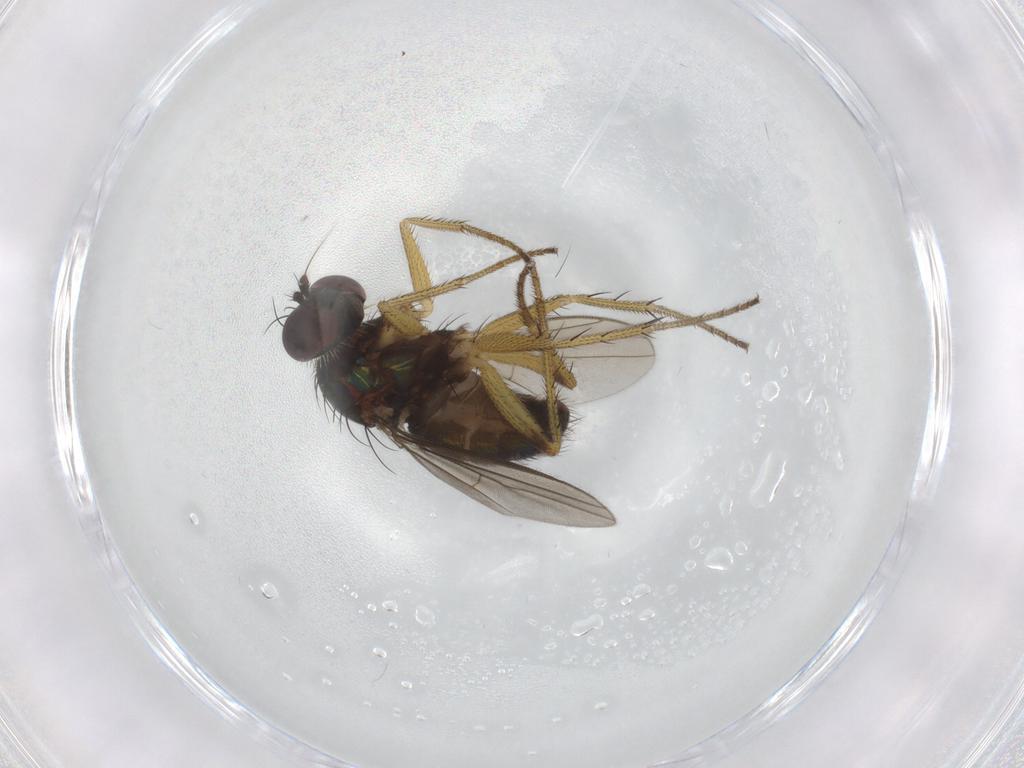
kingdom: Animalia
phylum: Arthropoda
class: Insecta
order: Diptera
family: Dolichopodidae
